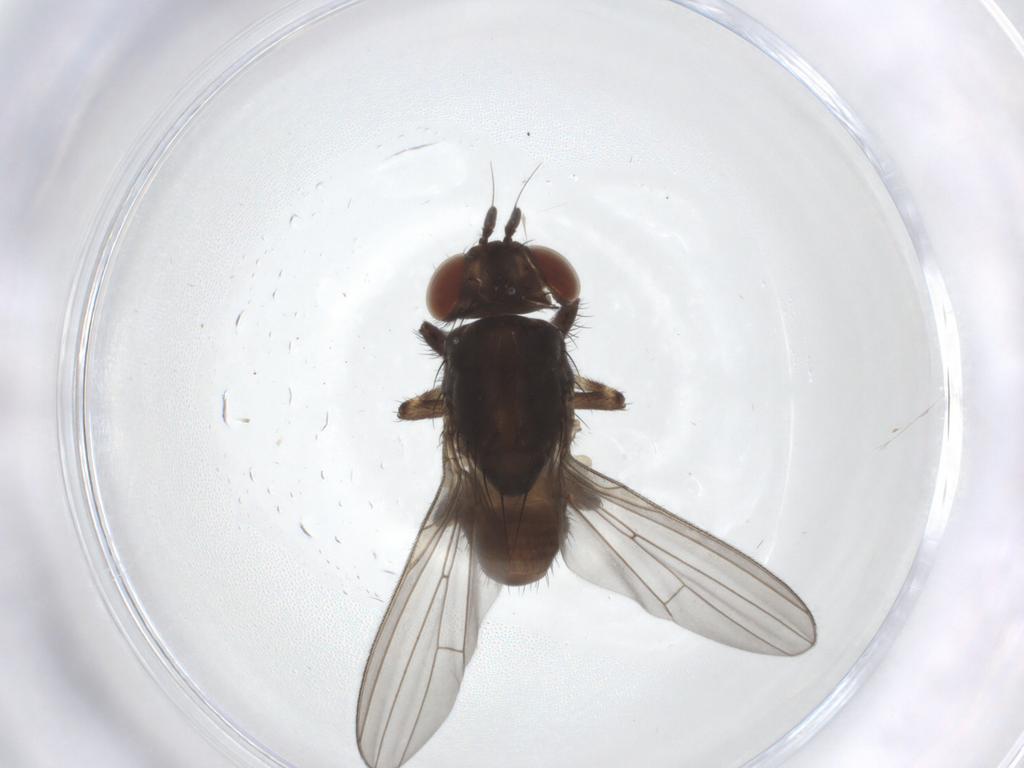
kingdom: Animalia
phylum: Arthropoda
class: Insecta
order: Diptera
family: Lauxaniidae
